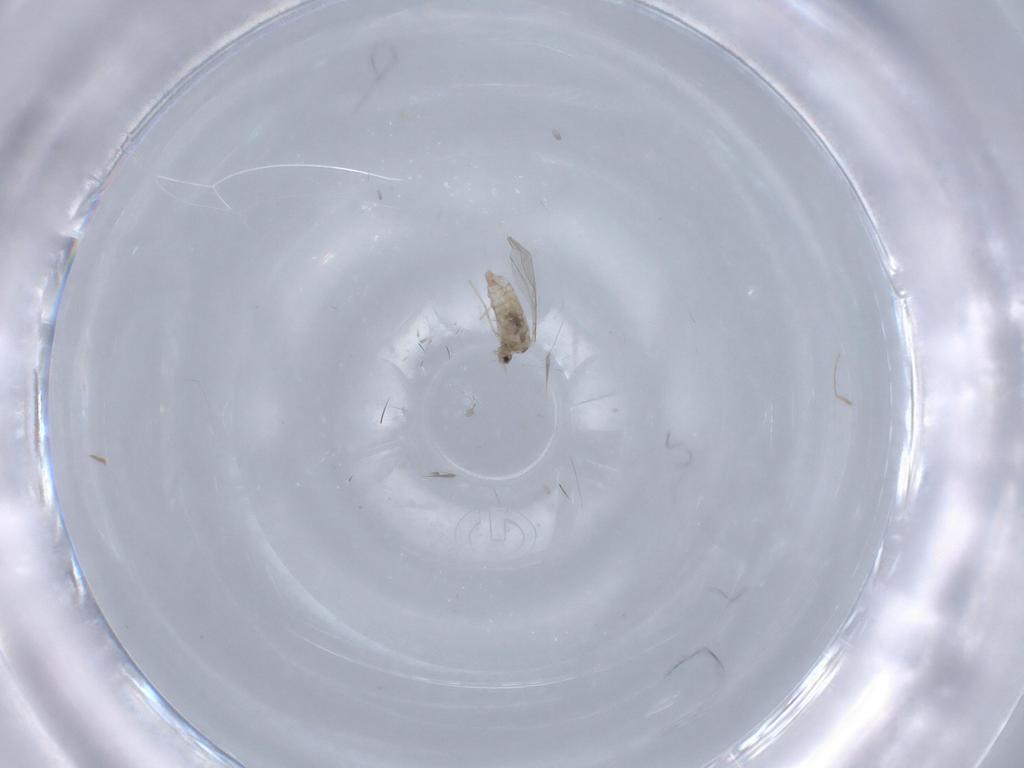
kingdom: Animalia
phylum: Arthropoda
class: Insecta
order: Diptera
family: Cecidomyiidae
